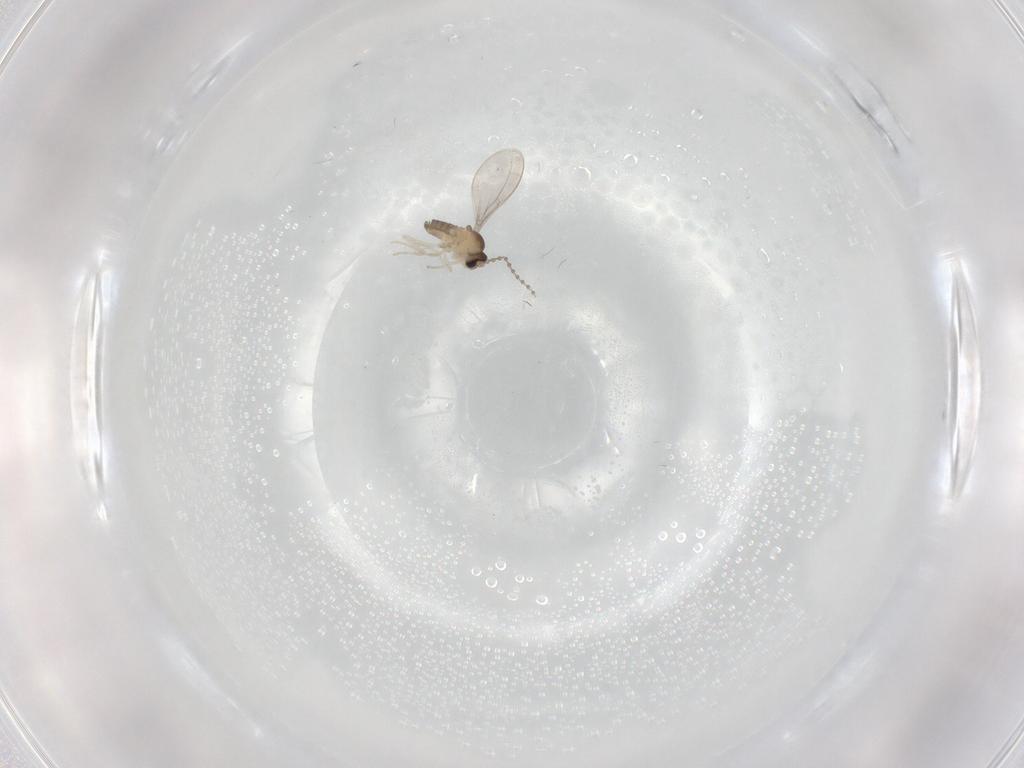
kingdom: Animalia
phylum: Arthropoda
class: Insecta
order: Diptera
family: Cecidomyiidae
